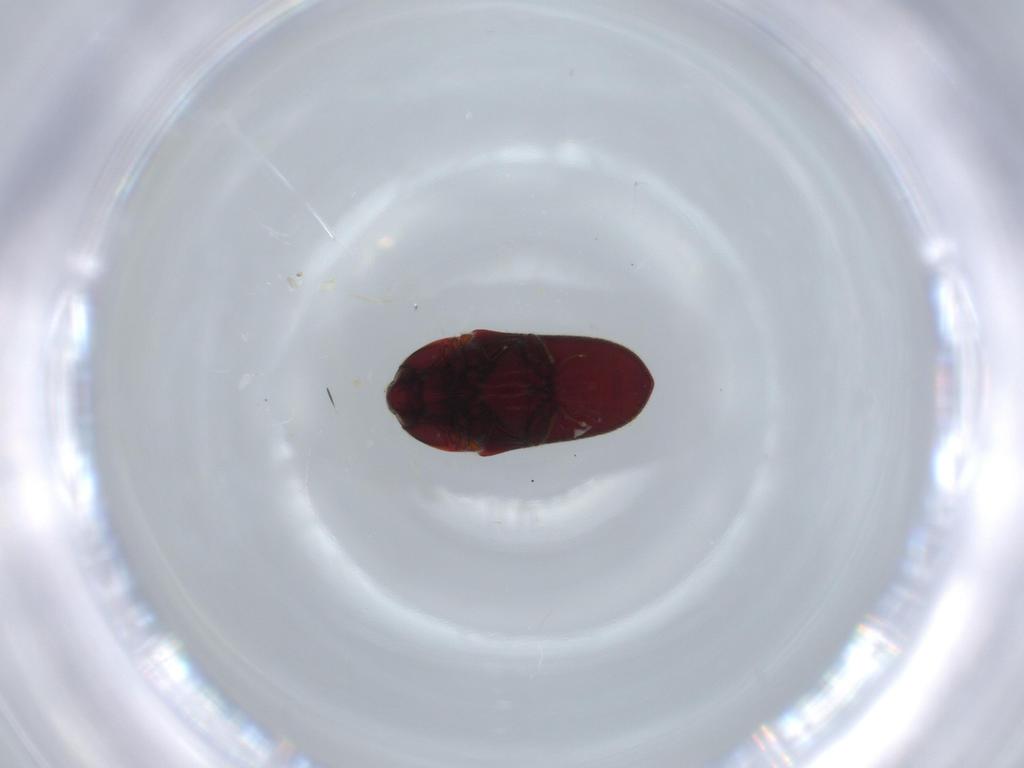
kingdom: Animalia
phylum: Arthropoda
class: Insecta
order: Coleoptera
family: Throscidae
